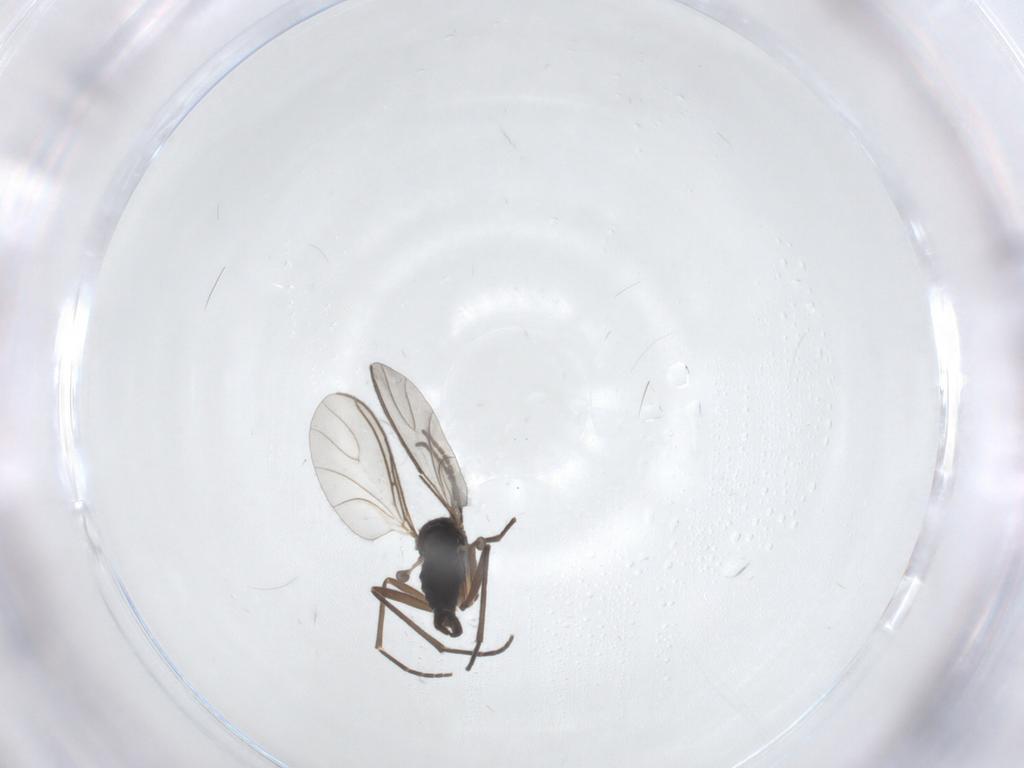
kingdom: Animalia
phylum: Arthropoda
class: Insecta
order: Diptera
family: Sciaridae
